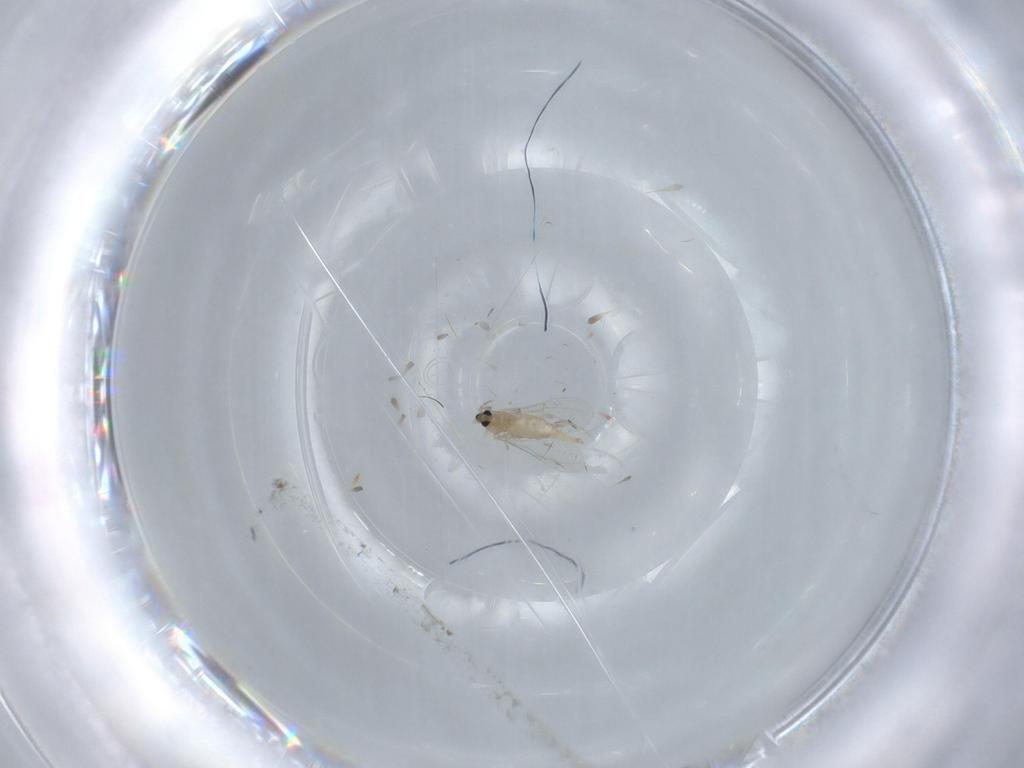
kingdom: Animalia
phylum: Arthropoda
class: Insecta
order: Diptera
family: Cecidomyiidae
